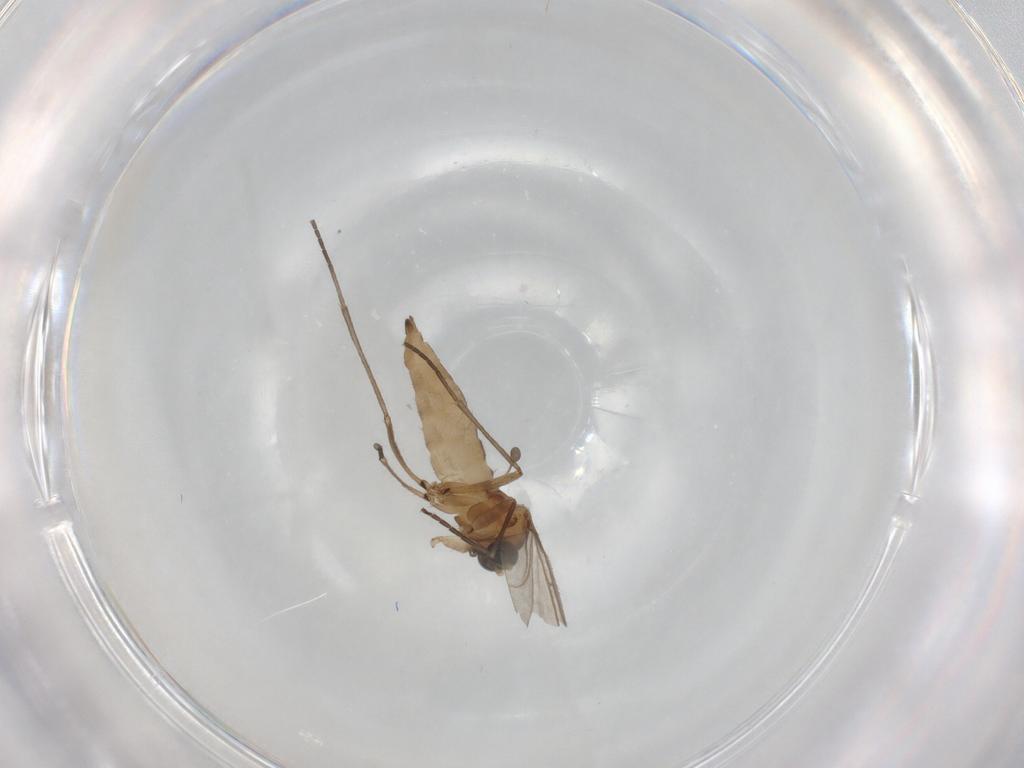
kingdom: Animalia
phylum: Arthropoda
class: Insecta
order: Diptera
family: Sciaridae
